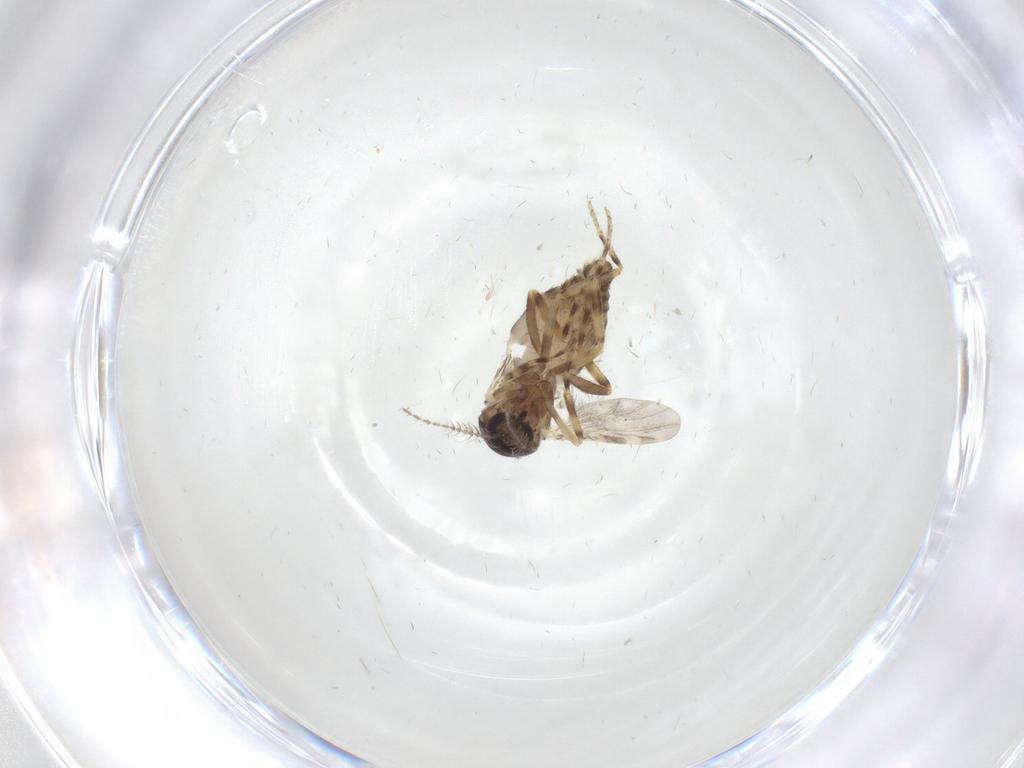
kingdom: Animalia
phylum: Arthropoda
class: Insecta
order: Diptera
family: Ceratopogonidae
